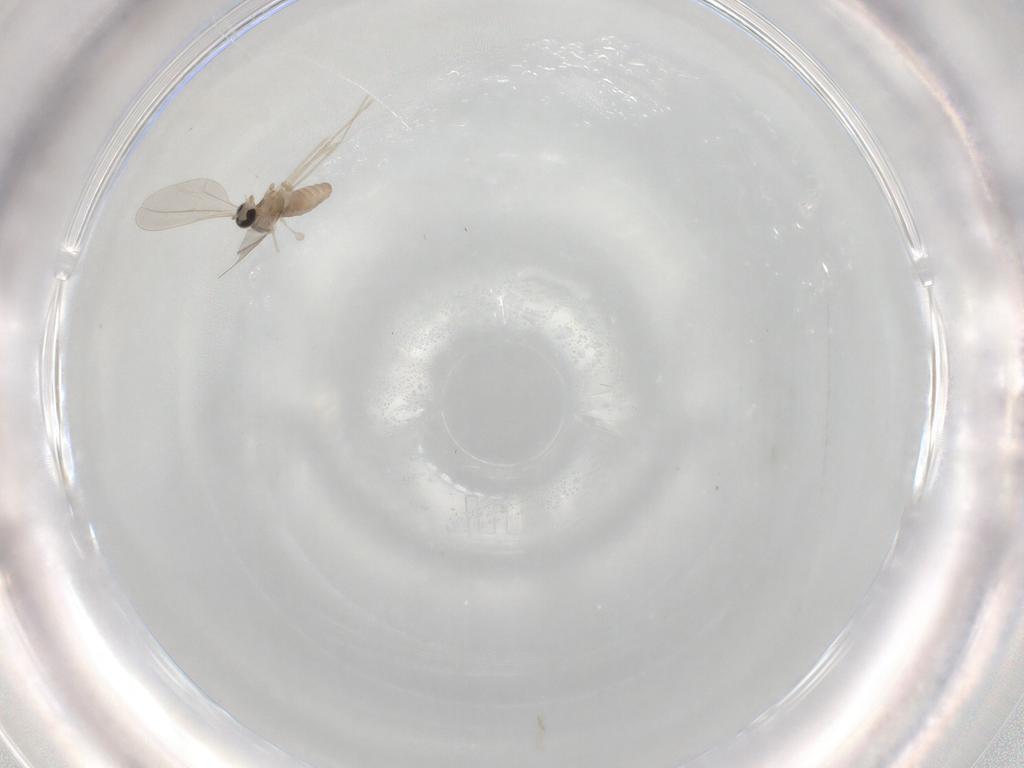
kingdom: Animalia
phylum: Arthropoda
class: Insecta
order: Diptera
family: Cecidomyiidae
